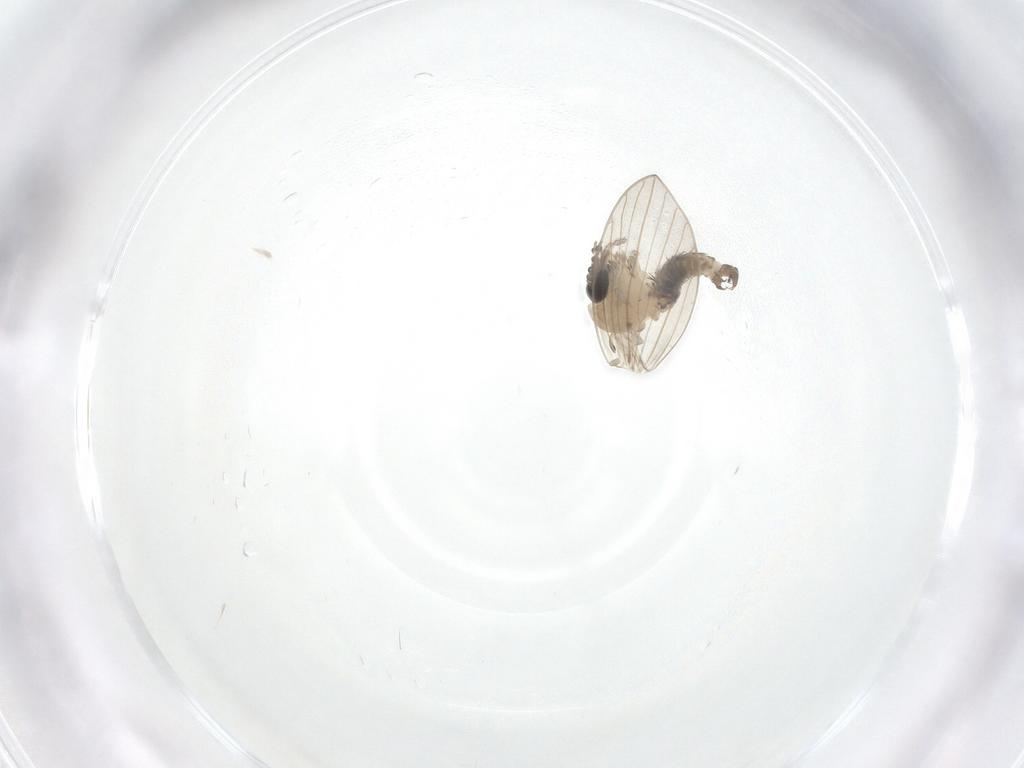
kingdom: Animalia
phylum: Arthropoda
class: Insecta
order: Diptera
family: Psychodidae
